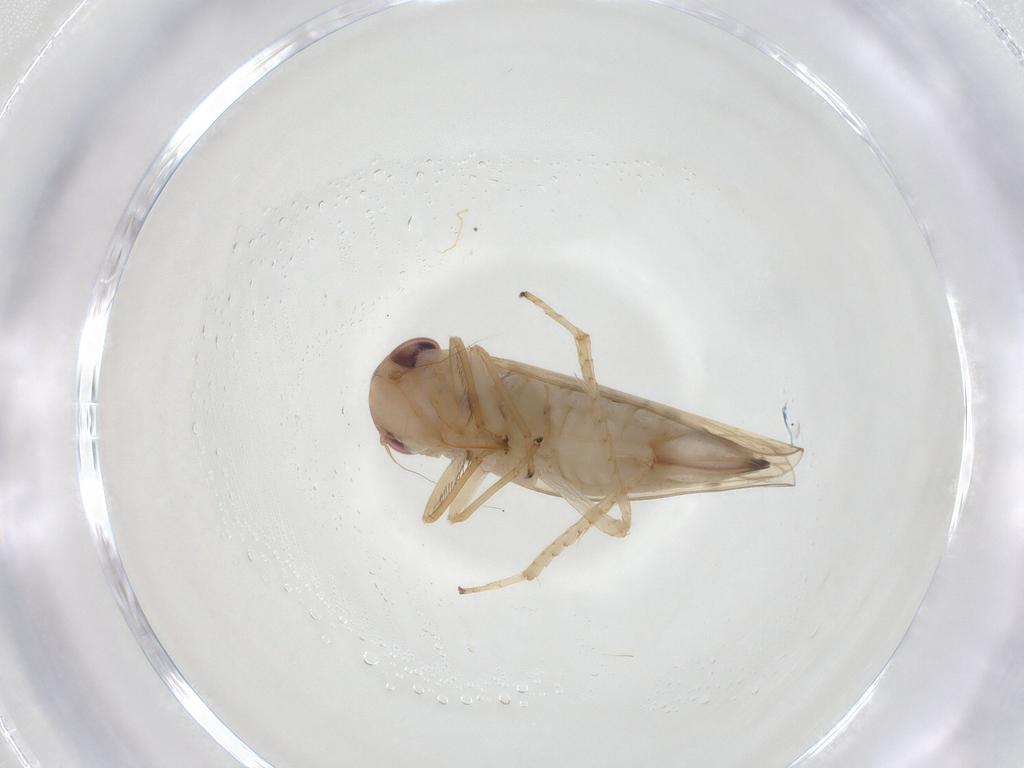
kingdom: Animalia
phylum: Arthropoda
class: Insecta
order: Hemiptera
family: Cicadellidae
